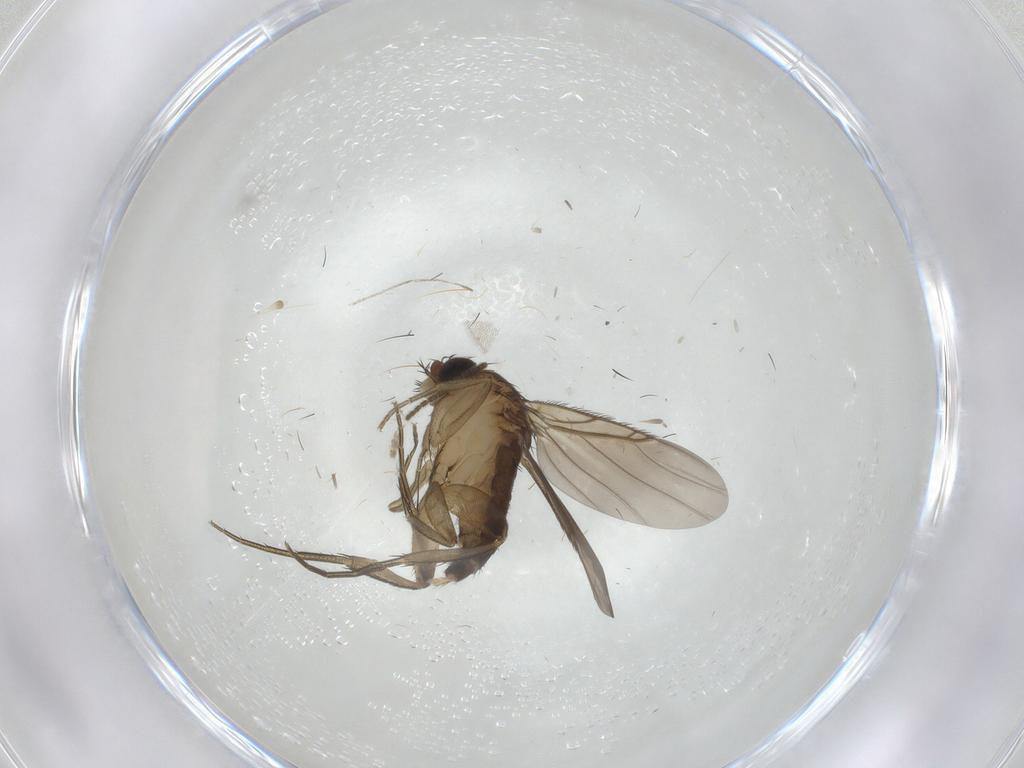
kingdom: Animalia
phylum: Arthropoda
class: Insecta
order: Diptera
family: Phoridae
